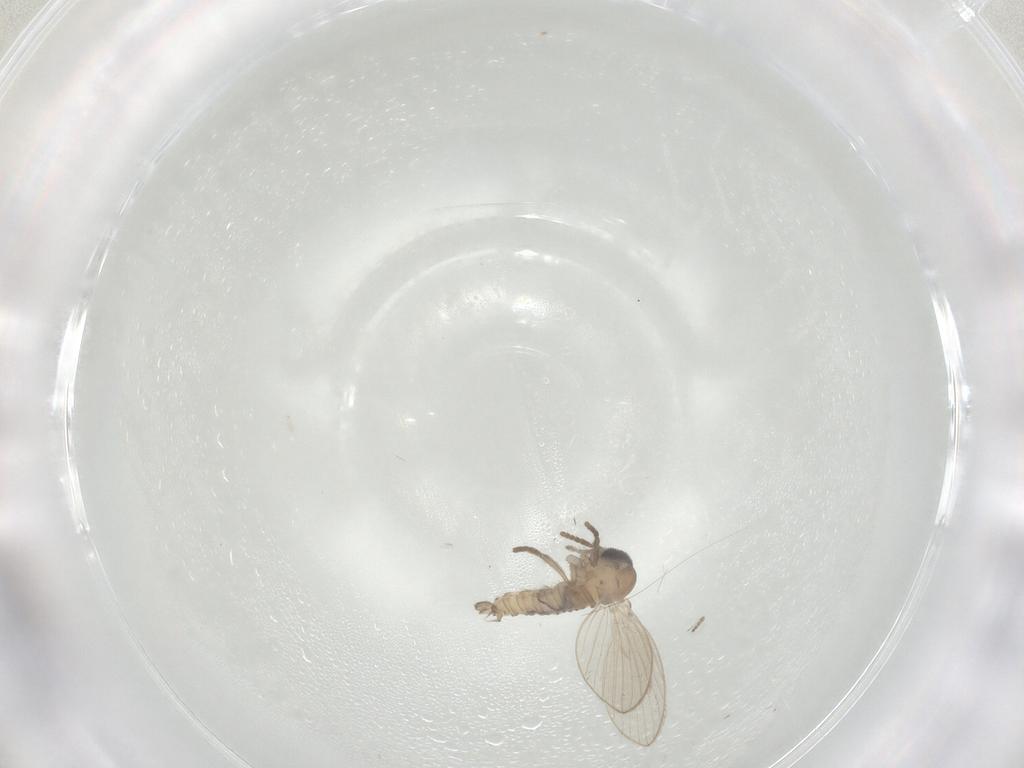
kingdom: Animalia
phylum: Arthropoda
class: Insecta
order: Diptera
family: Psychodidae
